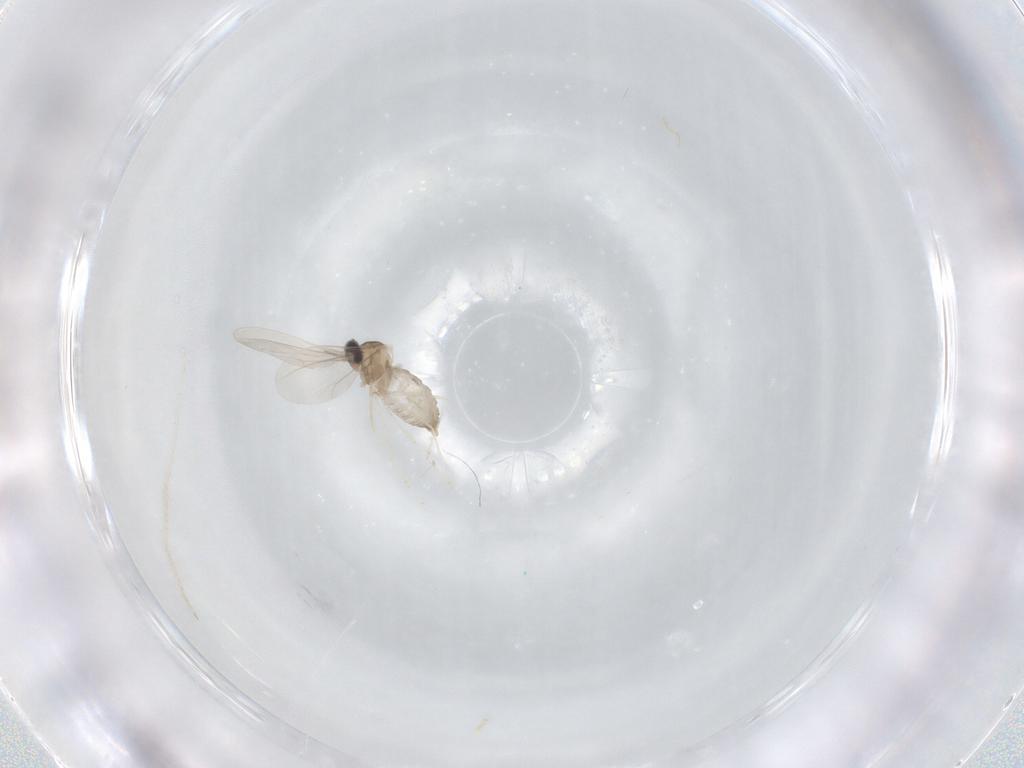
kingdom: Animalia
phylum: Arthropoda
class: Insecta
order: Diptera
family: Cecidomyiidae
